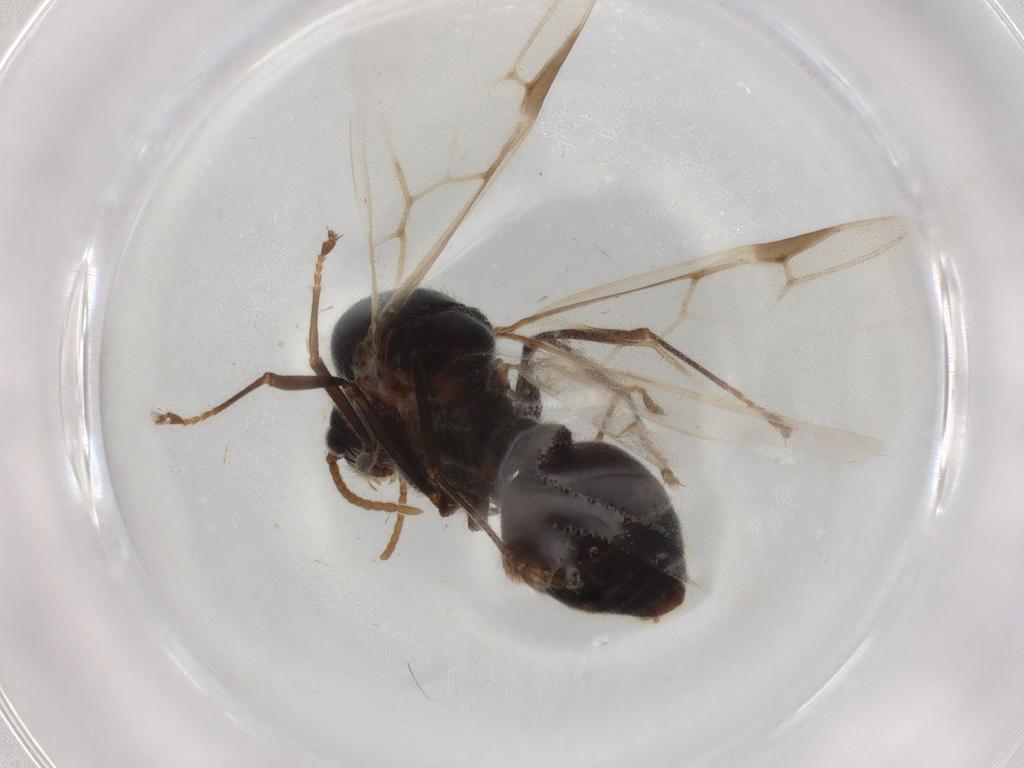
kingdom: Animalia
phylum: Arthropoda
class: Insecta
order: Hymenoptera
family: Formicidae
